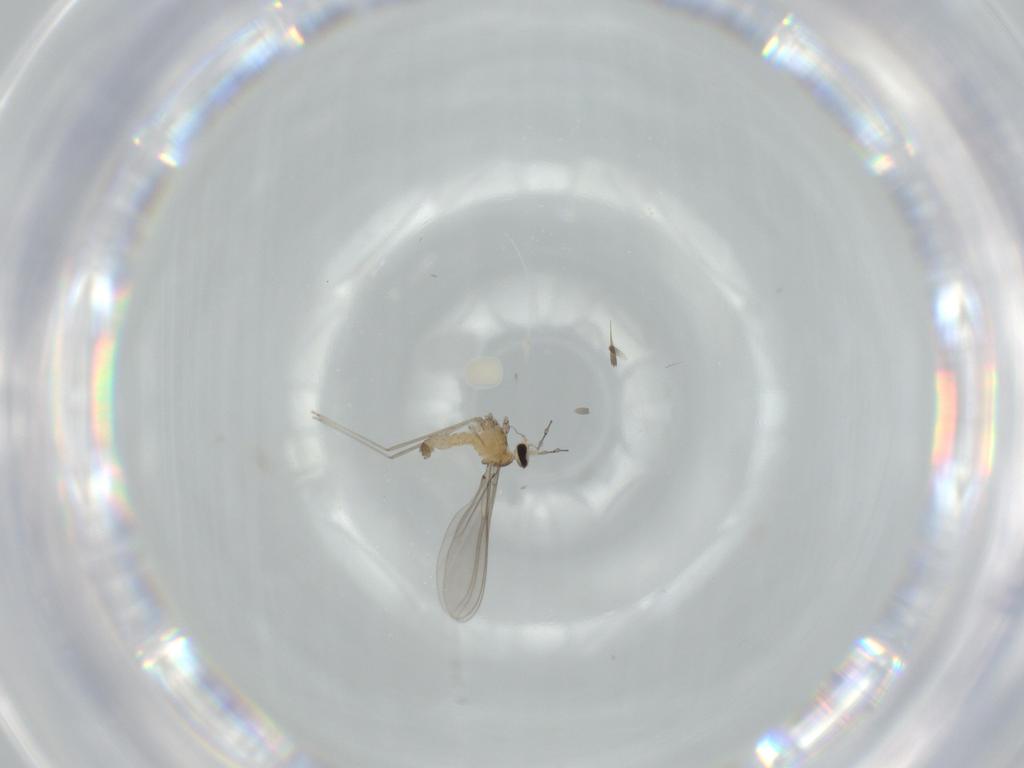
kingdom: Animalia
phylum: Arthropoda
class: Insecta
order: Diptera
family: Cecidomyiidae
